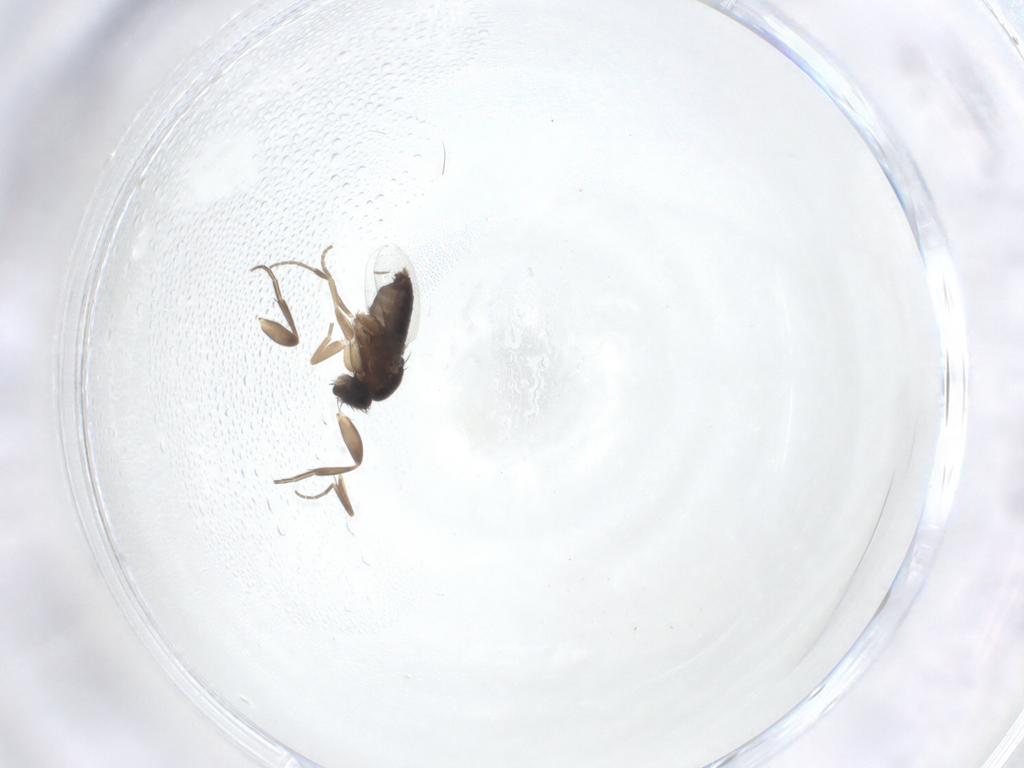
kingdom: Animalia
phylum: Arthropoda
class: Insecta
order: Diptera
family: Phoridae
